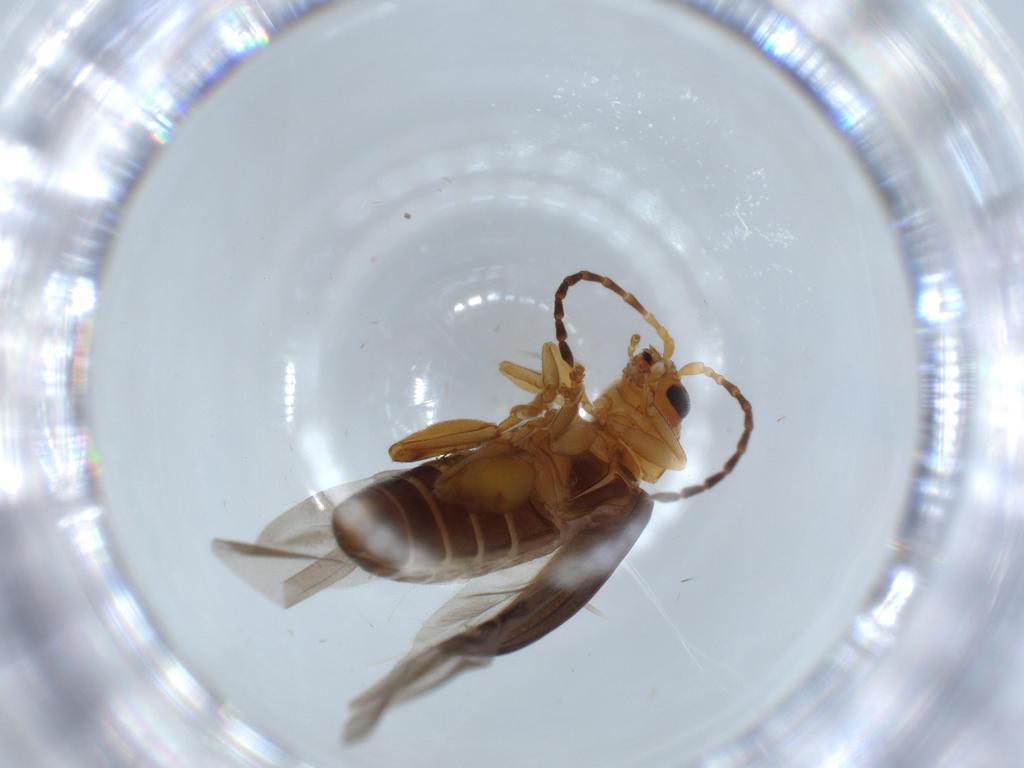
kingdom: Animalia
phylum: Arthropoda
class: Insecta
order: Coleoptera
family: Chrysomelidae
